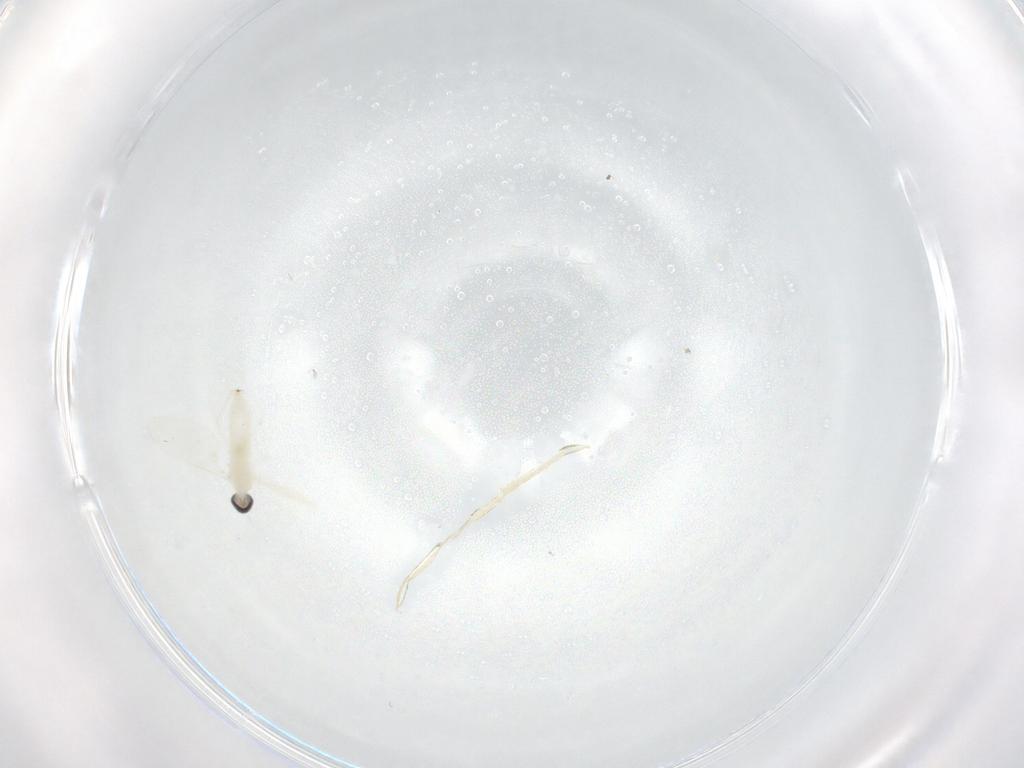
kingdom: Animalia
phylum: Arthropoda
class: Insecta
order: Diptera
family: Cecidomyiidae
